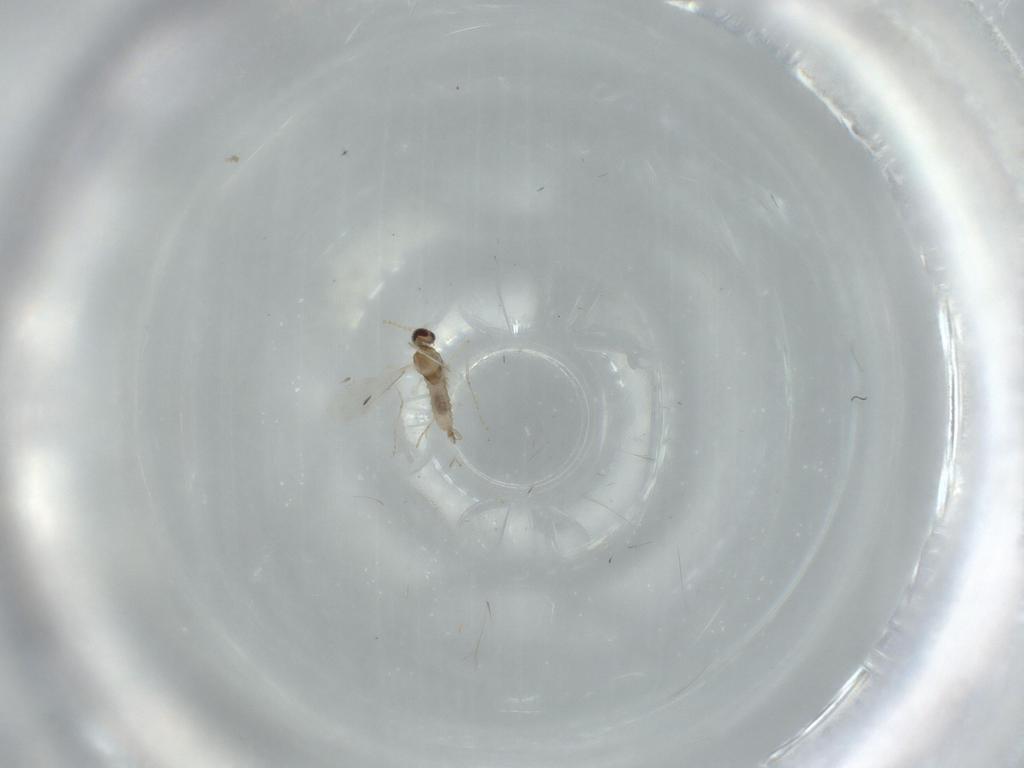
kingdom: Animalia
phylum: Arthropoda
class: Insecta
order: Diptera
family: Cecidomyiidae
